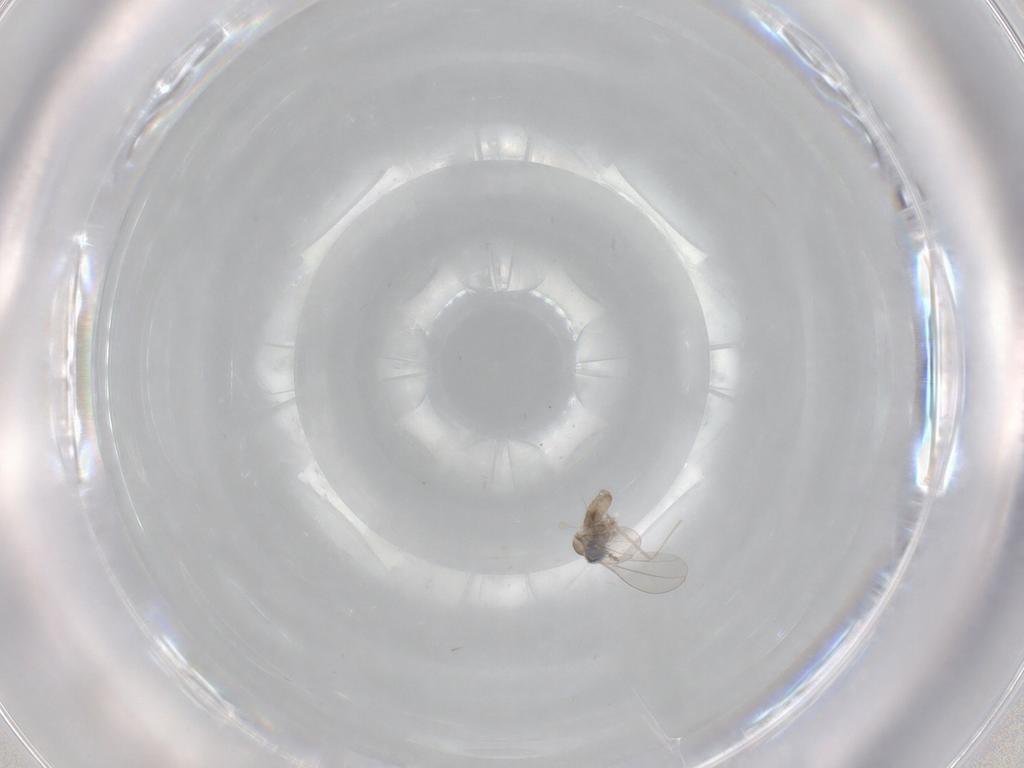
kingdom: Animalia
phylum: Arthropoda
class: Insecta
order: Diptera
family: Cecidomyiidae
